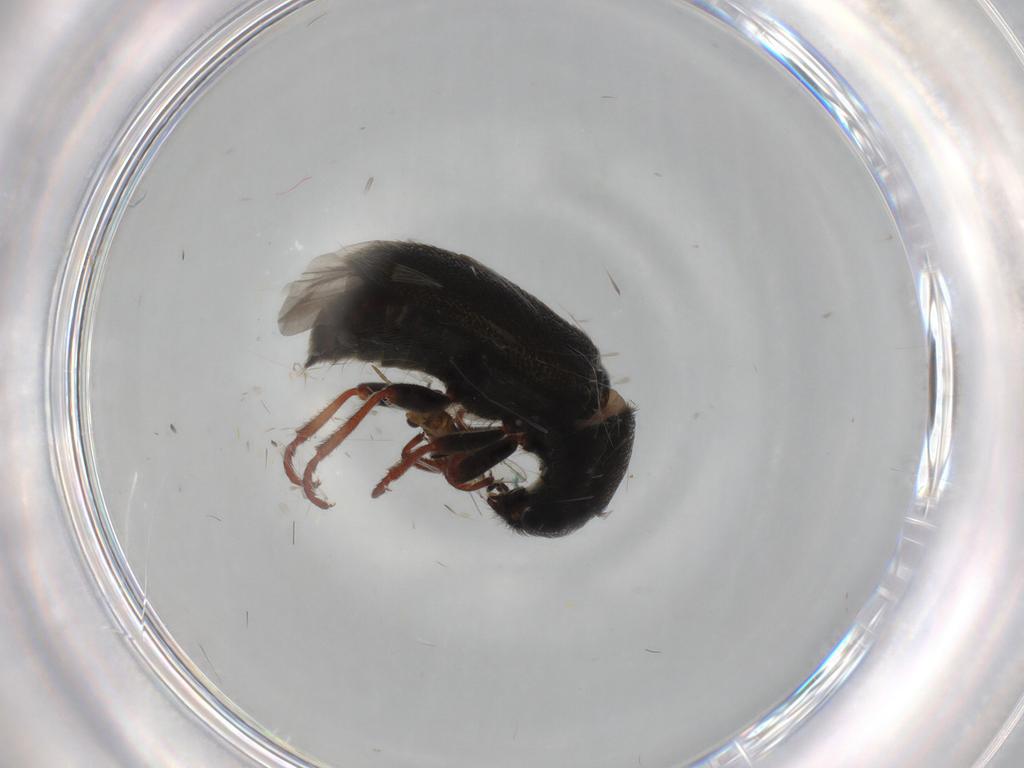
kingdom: Animalia
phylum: Arthropoda
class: Insecta
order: Coleoptera
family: Melyridae
